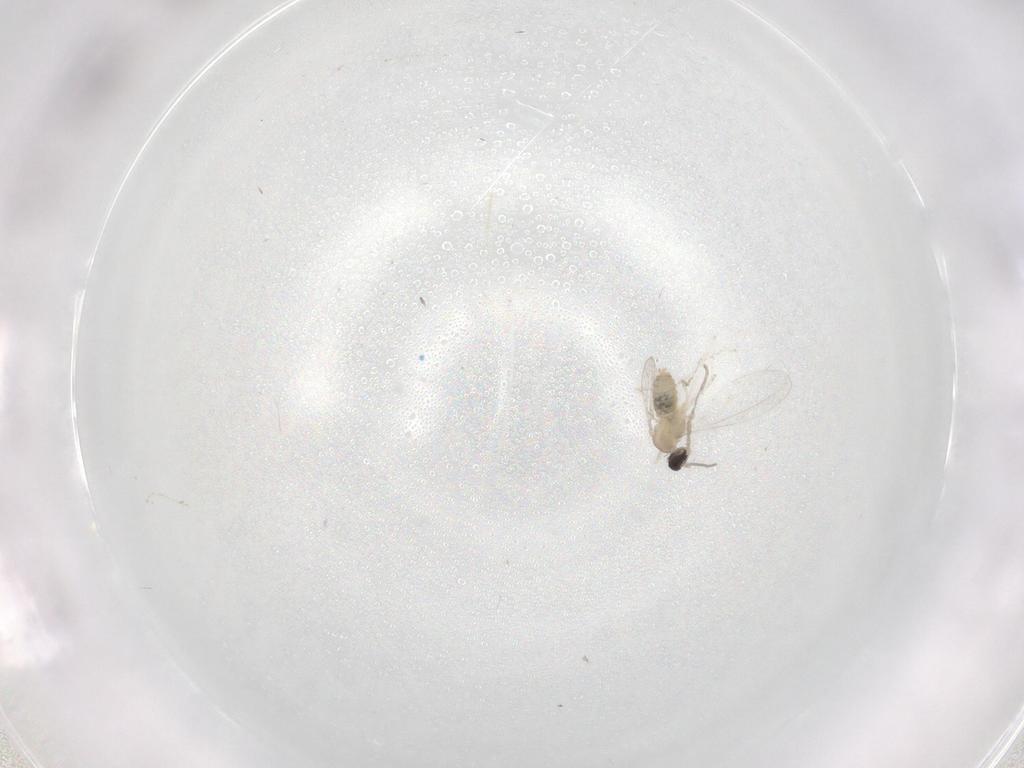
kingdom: Animalia
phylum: Arthropoda
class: Insecta
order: Diptera
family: Cecidomyiidae
